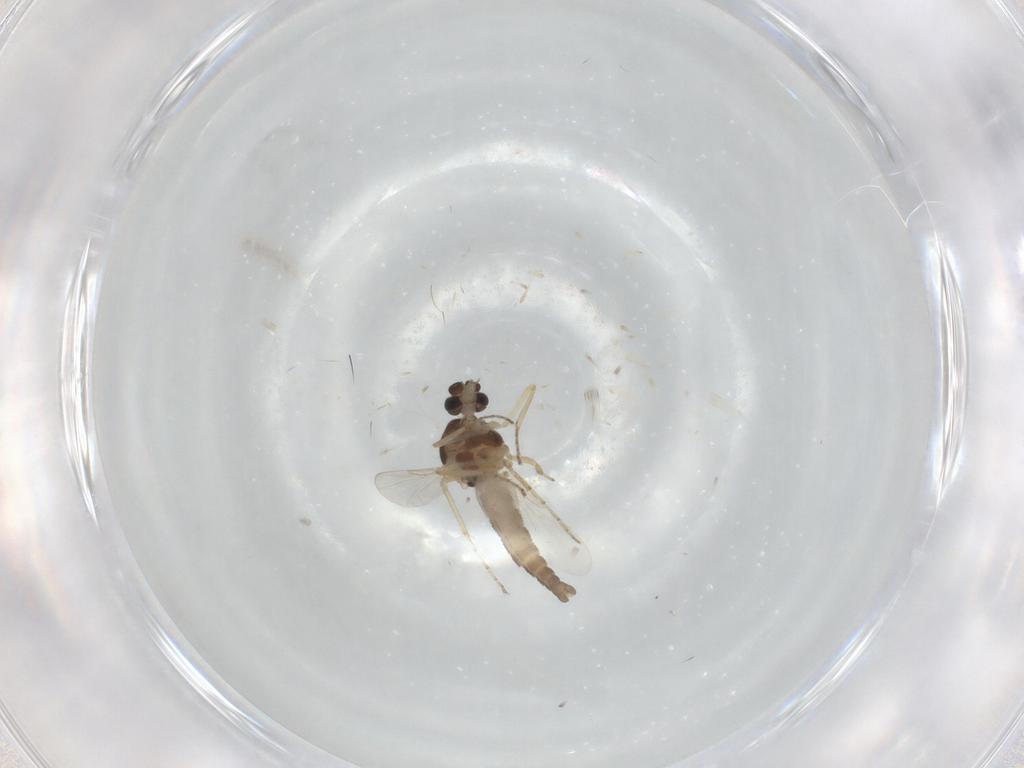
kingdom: Animalia
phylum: Arthropoda
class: Insecta
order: Diptera
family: Ceratopogonidae
